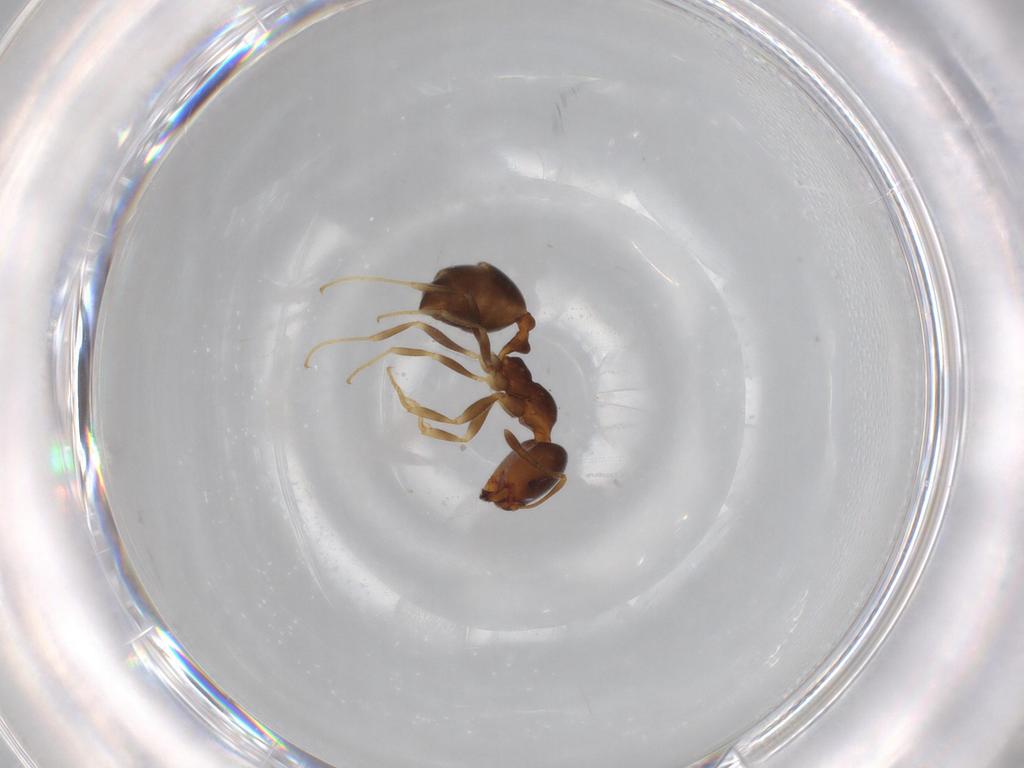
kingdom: Animalia
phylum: Arthropoda
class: Insecta
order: Hymenoptera
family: Formicidae
